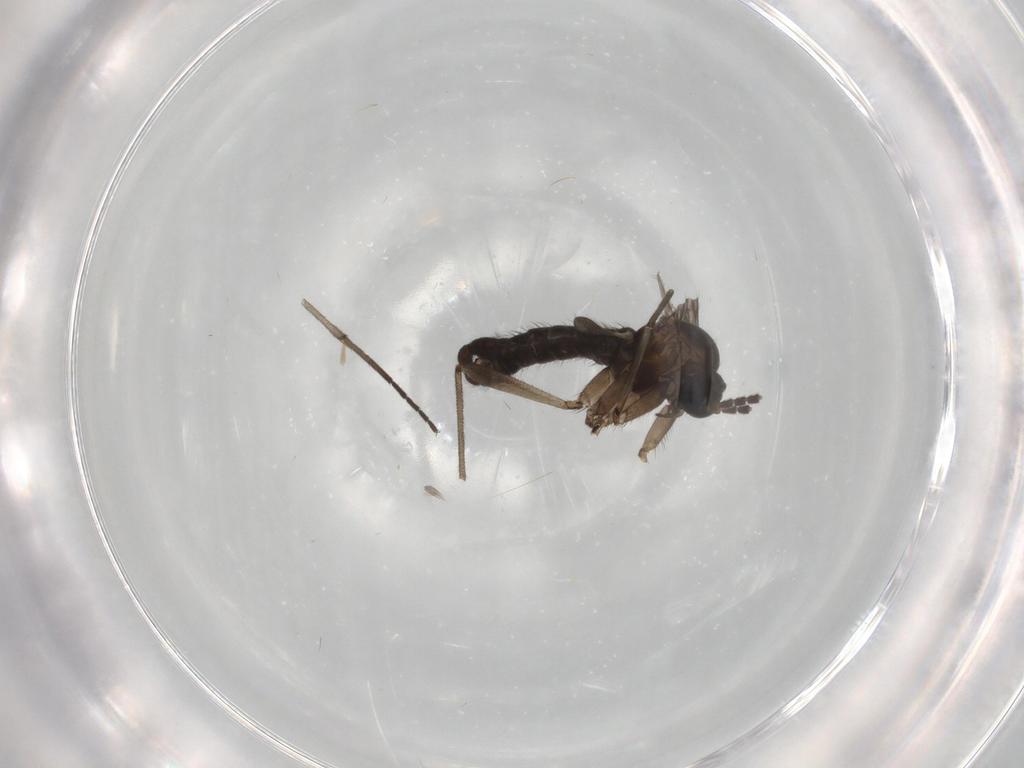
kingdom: Animalia
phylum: Arthropoda
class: Insecta
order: Diptera
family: Sciaridae
